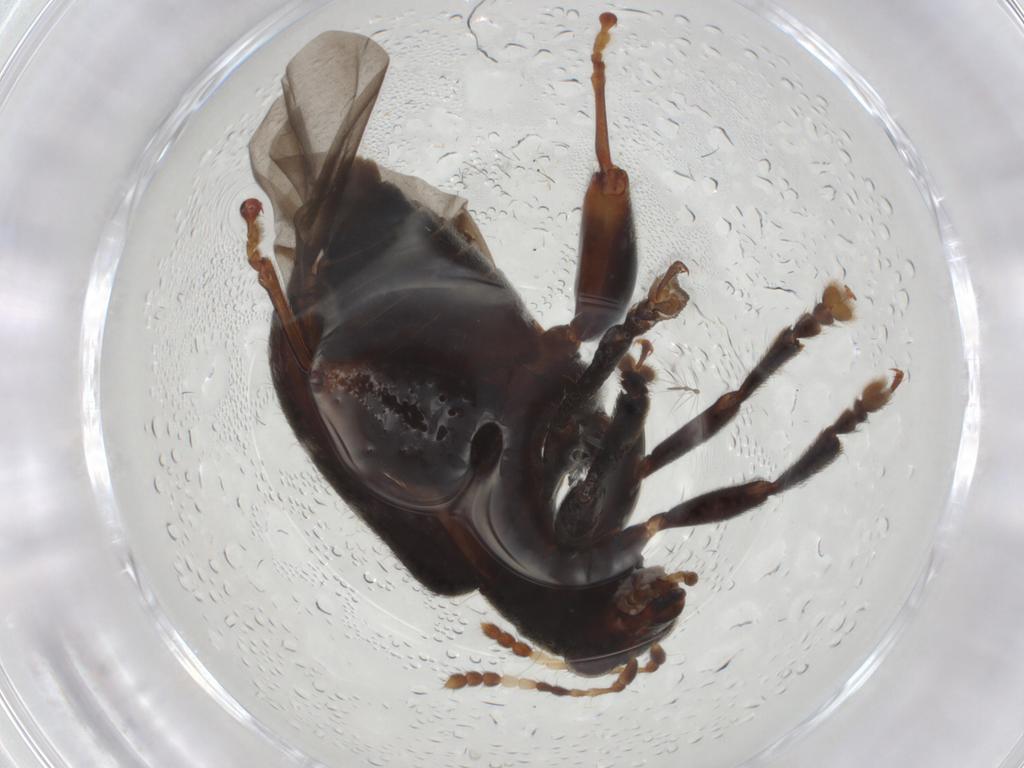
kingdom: Animalia
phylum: Arthropoda
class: Insecta
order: Coleoptera
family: Chrysomelidae
